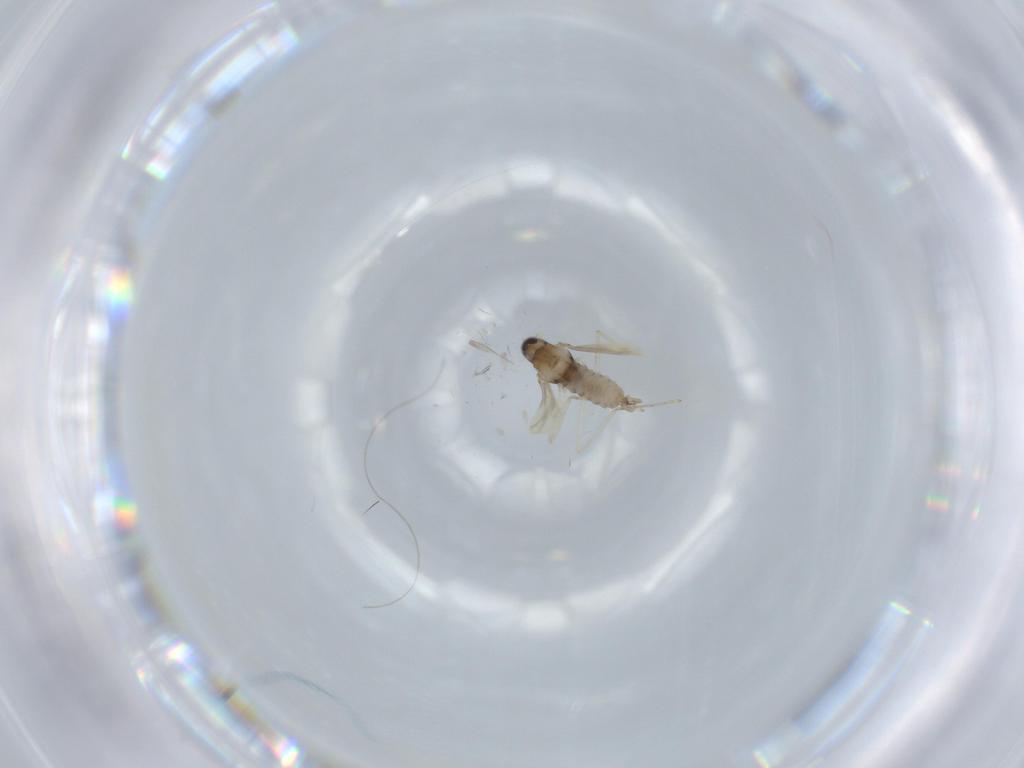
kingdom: Animalia
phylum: Arthropoda
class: Insecta
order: Diptera
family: Cecidomyiidae
